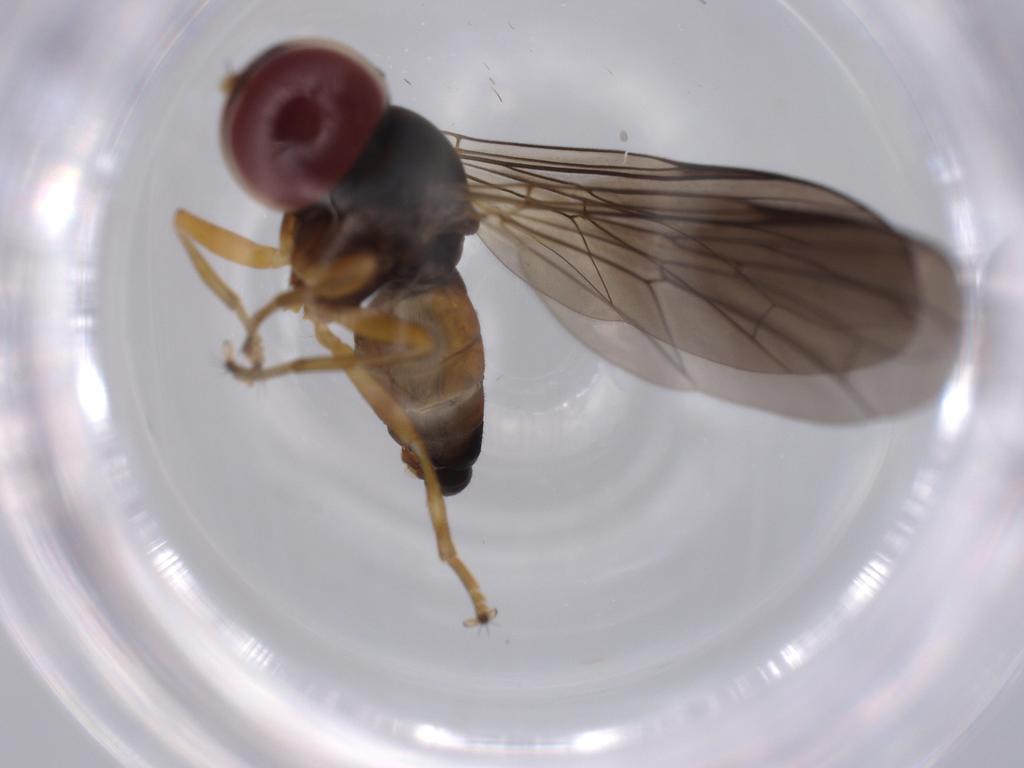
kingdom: Animalia
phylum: Arthropoda
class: Insecta
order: Diptera
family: Pipunculidae
